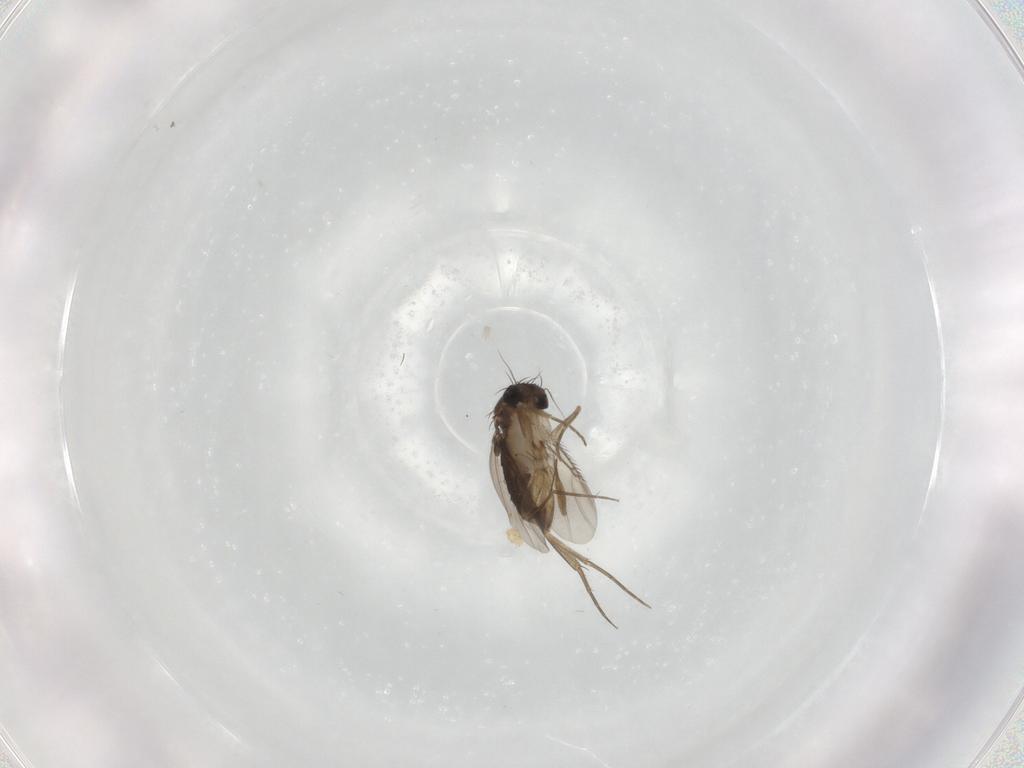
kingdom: Animalia
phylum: Arthropoda
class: Insecta
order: Diptera
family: Phoridae
